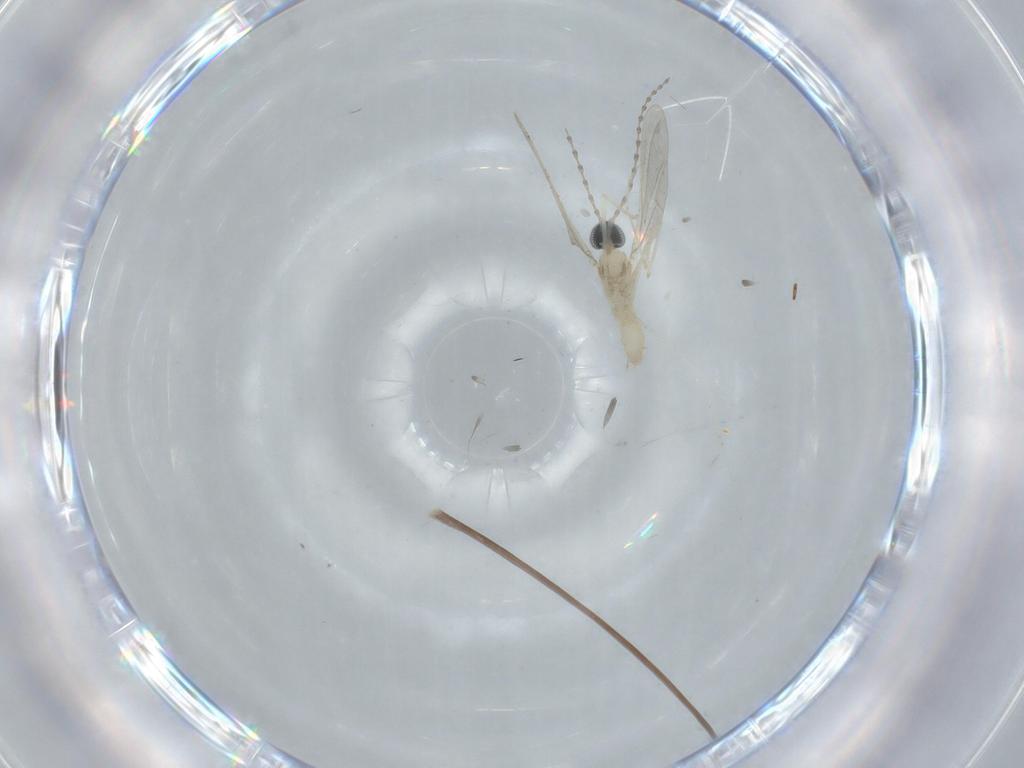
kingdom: Animalia
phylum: Arthropoda
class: Insecta
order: Diptera
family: Cecidomyiidae
